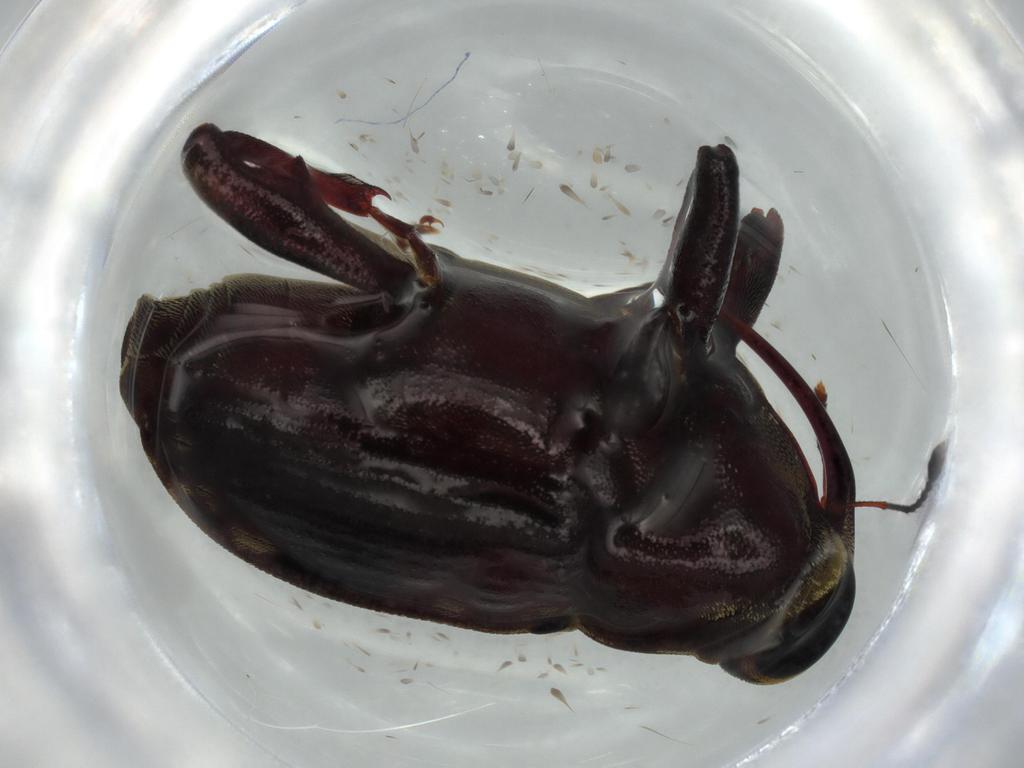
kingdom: Animalia
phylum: Arthropoda
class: Insecta
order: Coleoptera
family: Curculionidae
